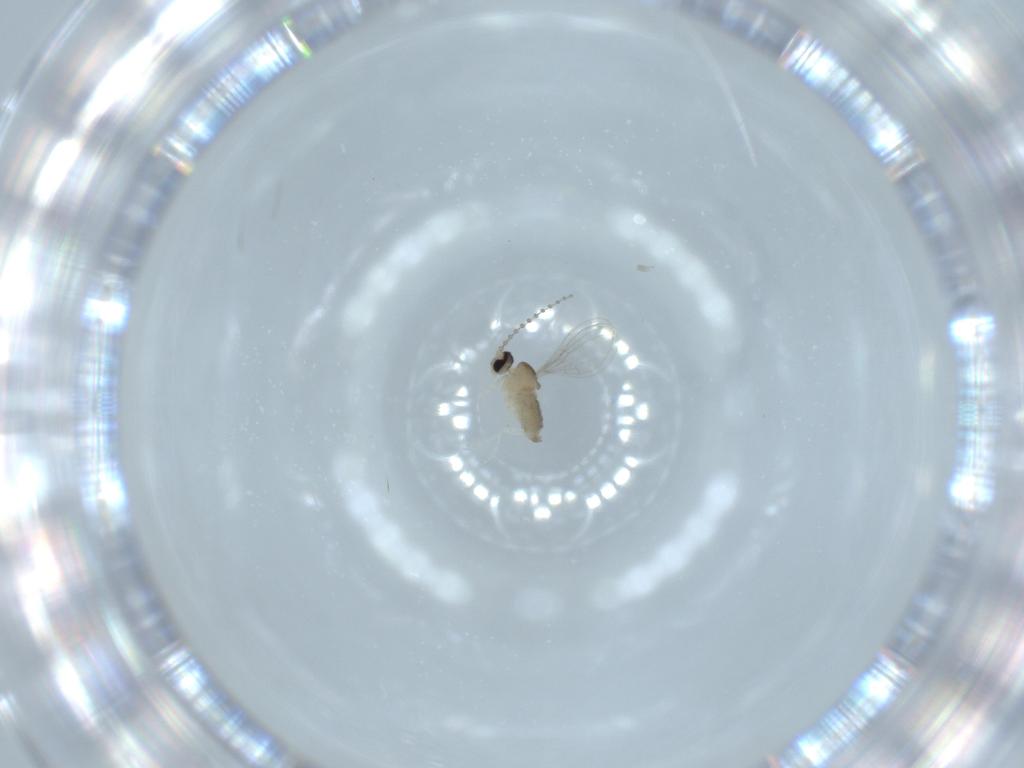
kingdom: Animalia
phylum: Arthropoda
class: Insecta
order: Diptera
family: Cecidomyiidae
